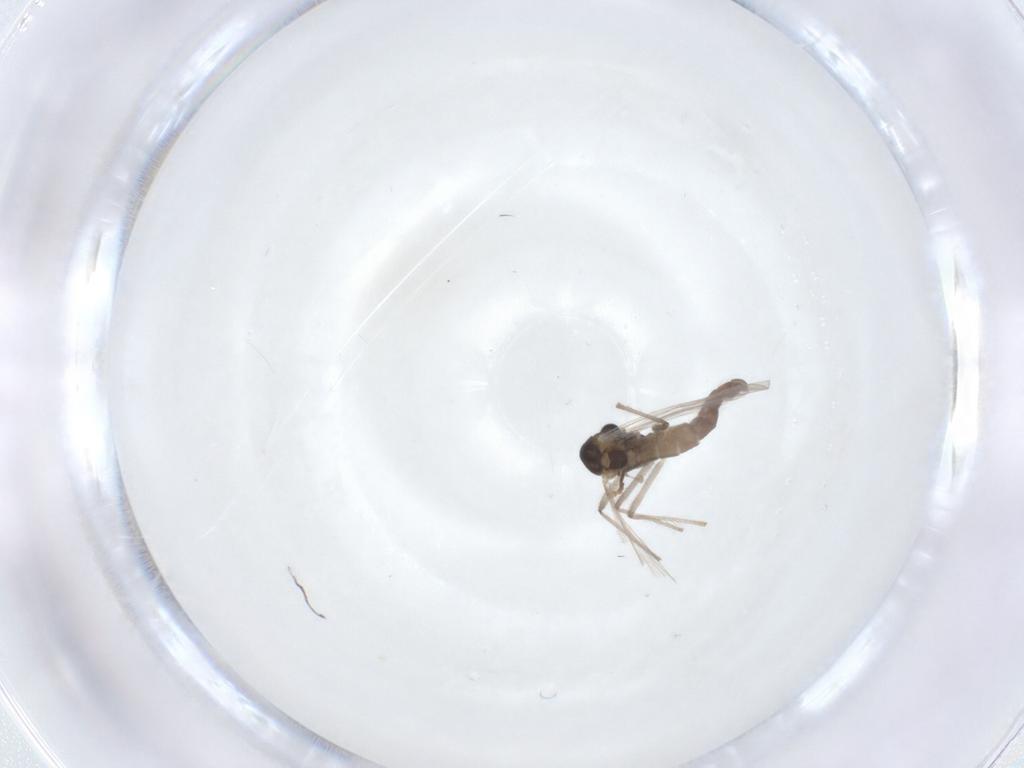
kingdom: Animalia
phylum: Arthropoda
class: Insecta
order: Diptera
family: Chironomidae
